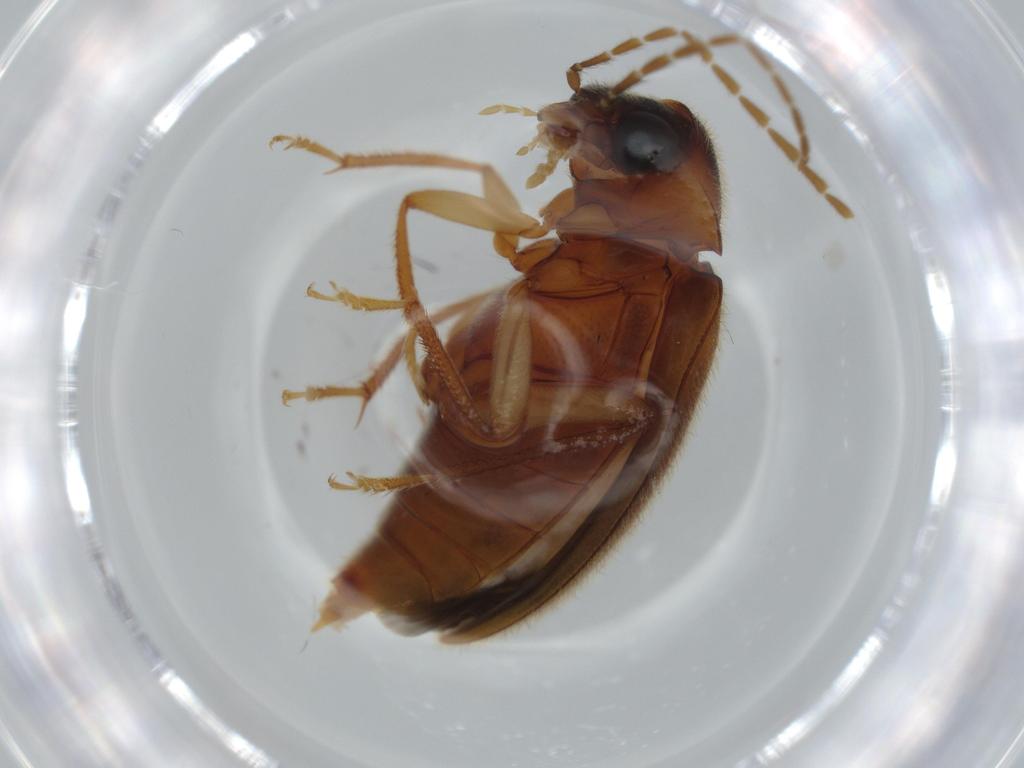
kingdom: Animalia
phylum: Arthropoda
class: Insecta
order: Coleoptera
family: Ptilodactylidae
